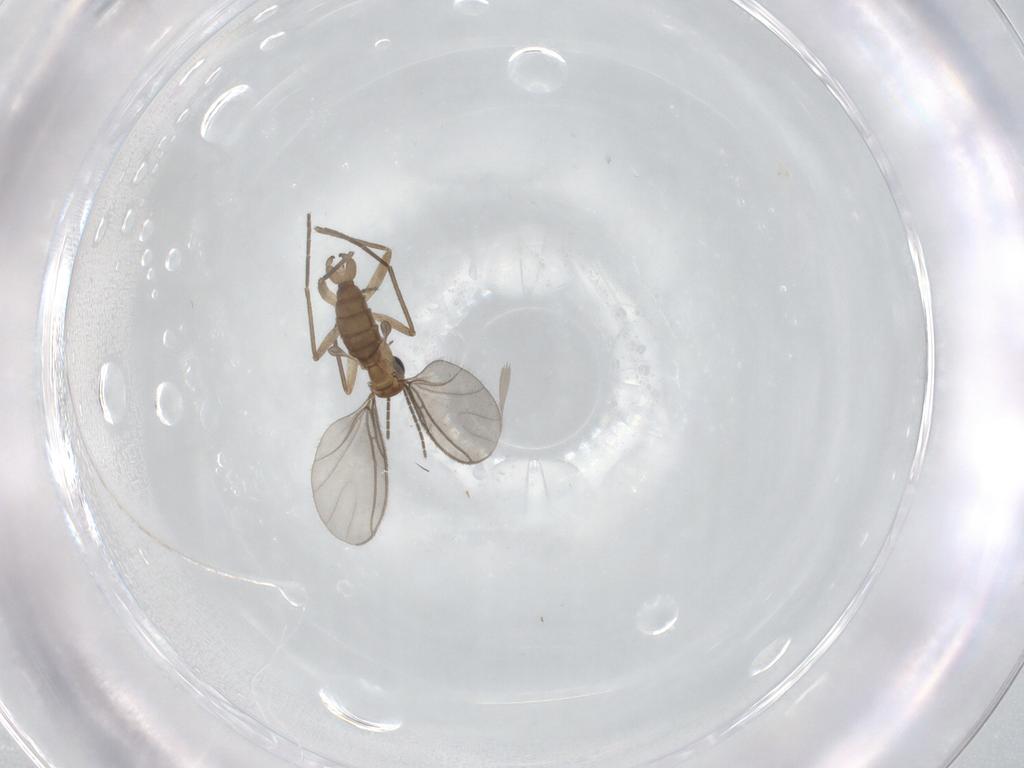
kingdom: Animalia
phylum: Arthropoda
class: Insecta
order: Diptera
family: Sciaridae
